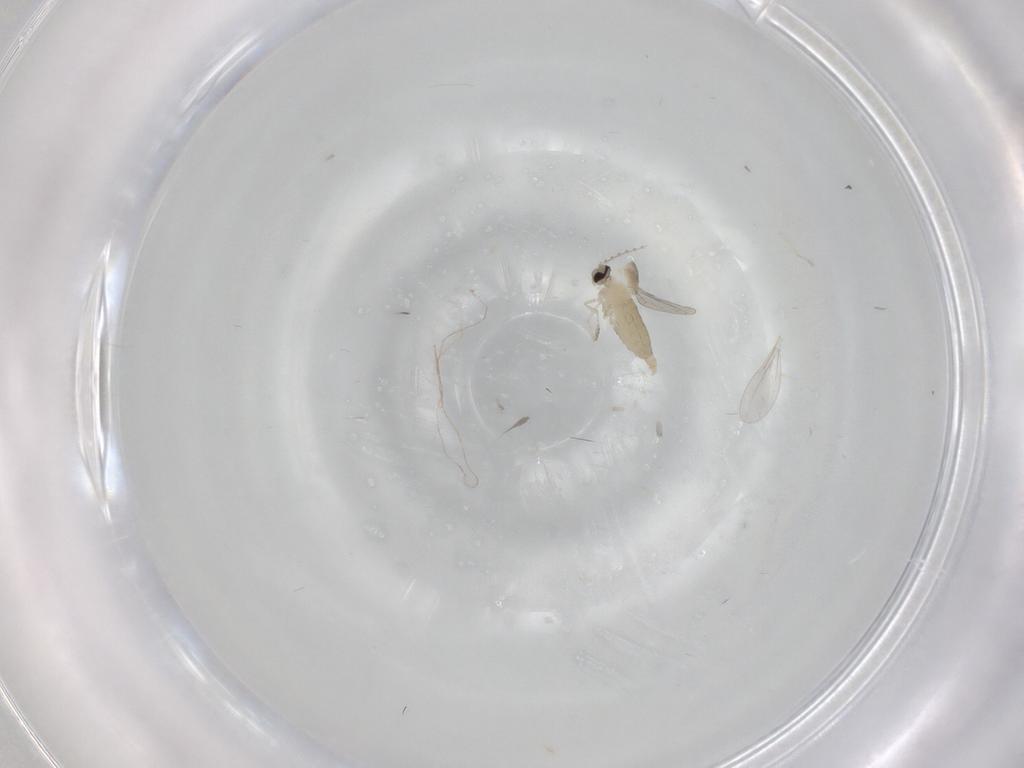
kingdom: Animalia
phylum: Arthropoda
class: Insecta
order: Diptera
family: Cecidomyiidae
